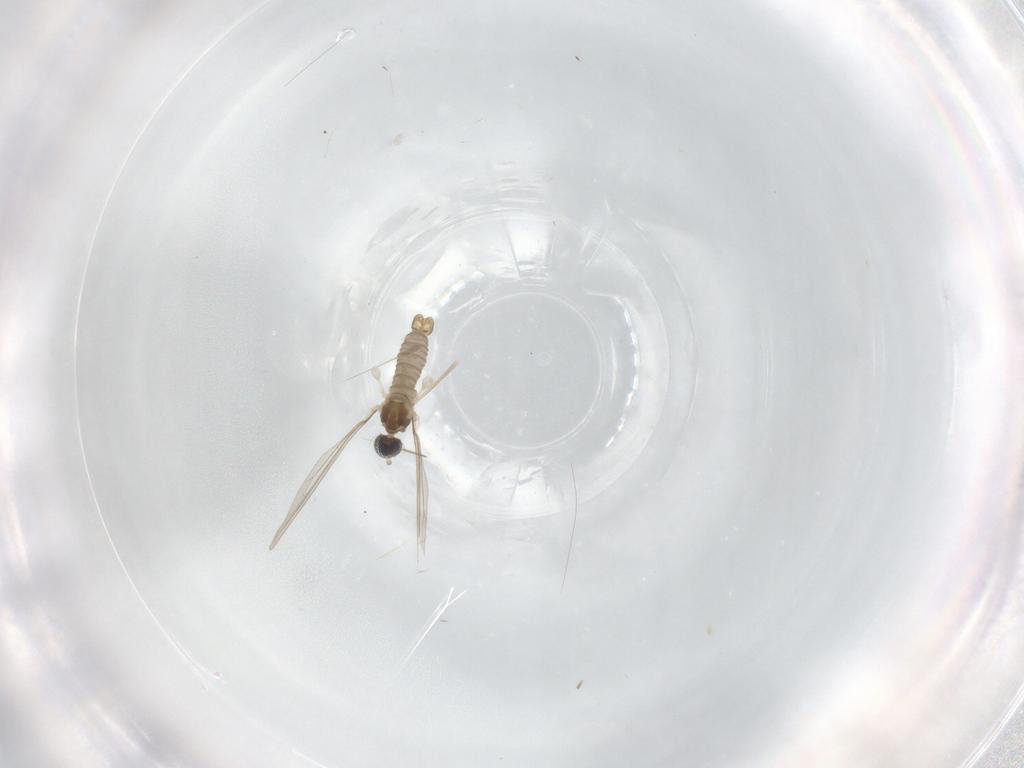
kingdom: Animalia
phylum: Arthropoda
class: Insecta
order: Diptera
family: Cecidomyiidae
